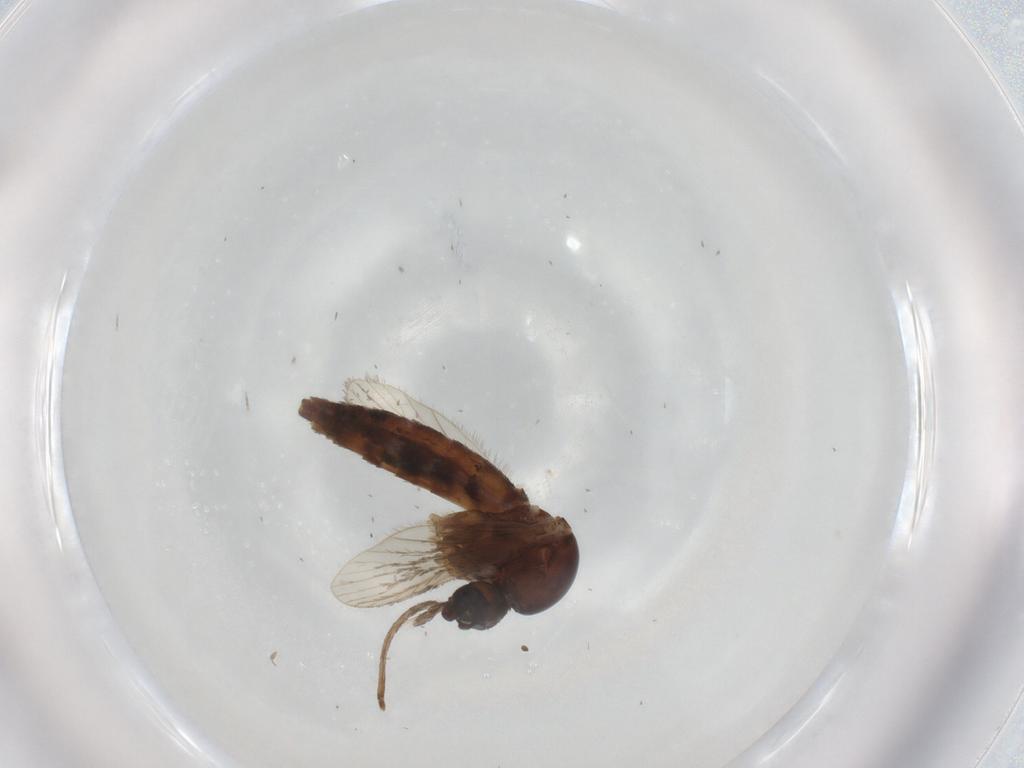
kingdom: Animalia
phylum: Arthropoda
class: Insecta
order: Diptera
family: Culicidae
